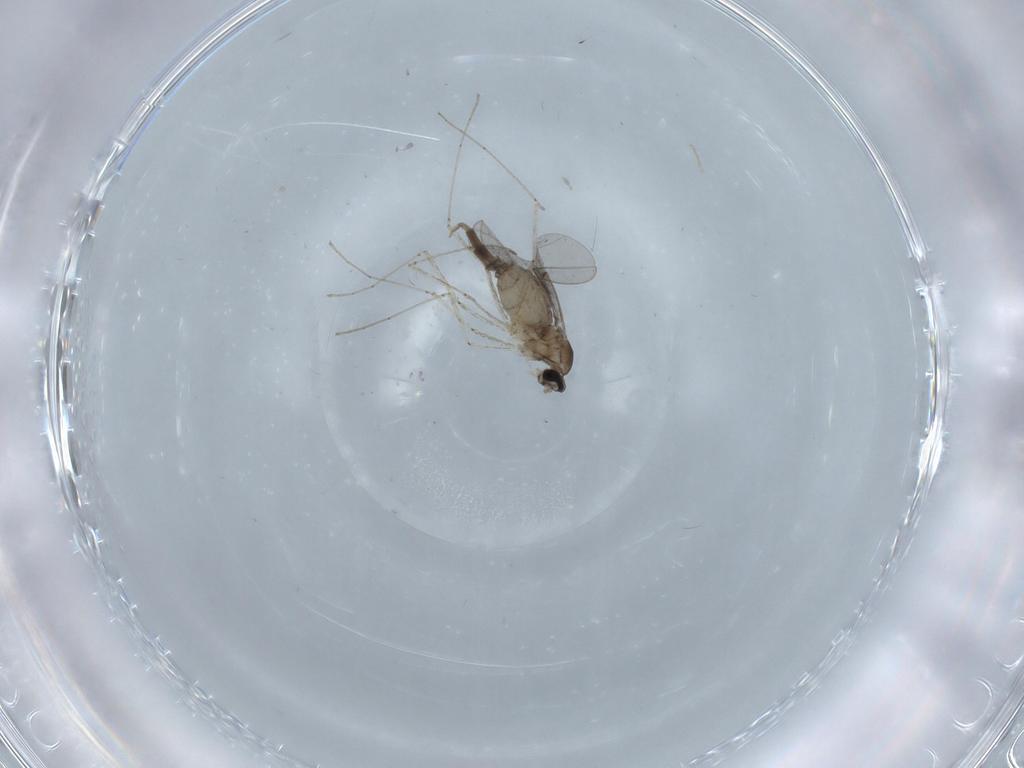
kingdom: Animalia
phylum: Arthropoda
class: Insecta
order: Diptera
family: Cecidomyiidae
